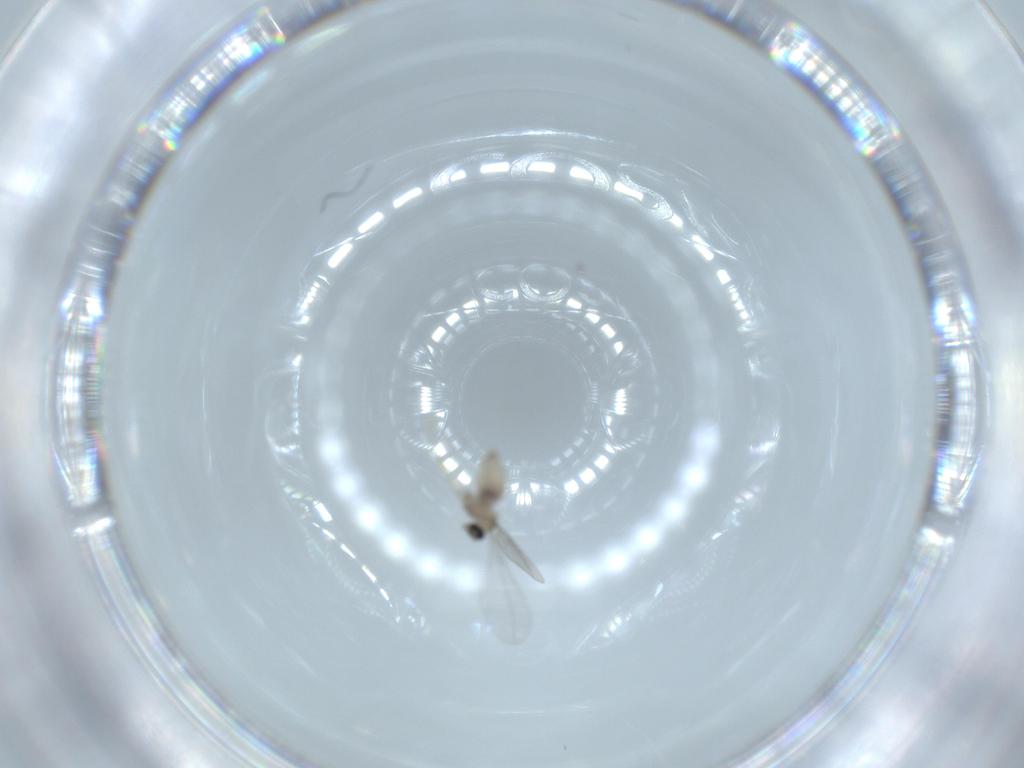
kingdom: Animalia
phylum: Arthropoda
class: Insecta
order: Diptera
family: Cecidomyiidae
